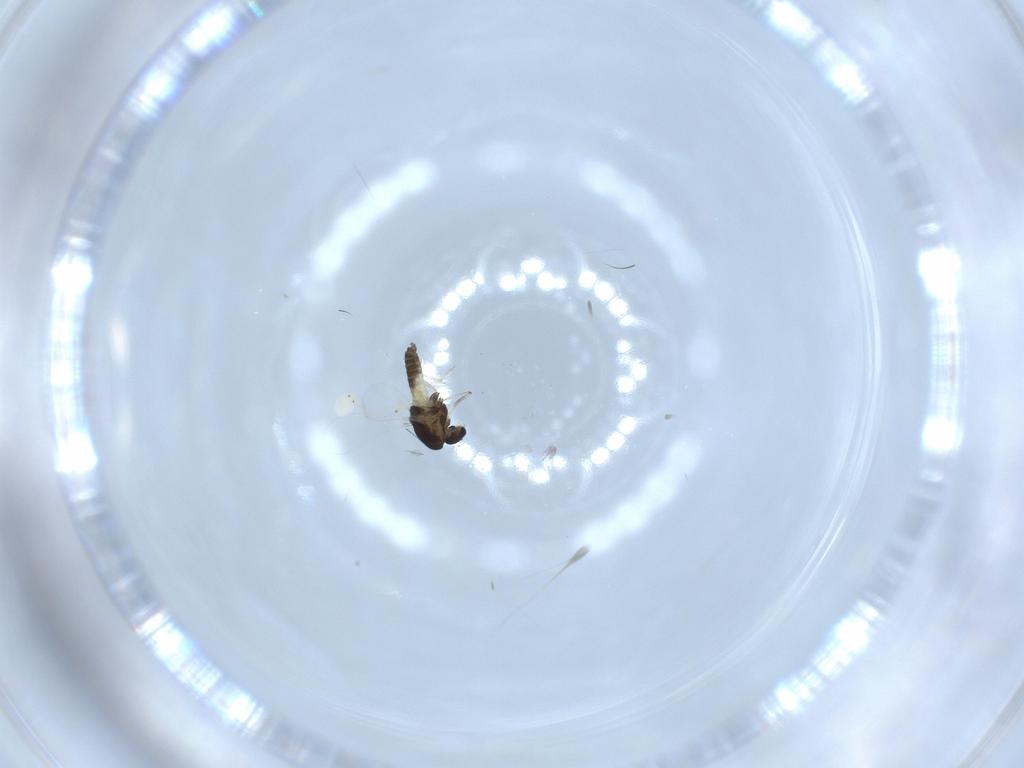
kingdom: Animalia
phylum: Arthropoda
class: Insecta
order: Diptera
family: Chironomidae
